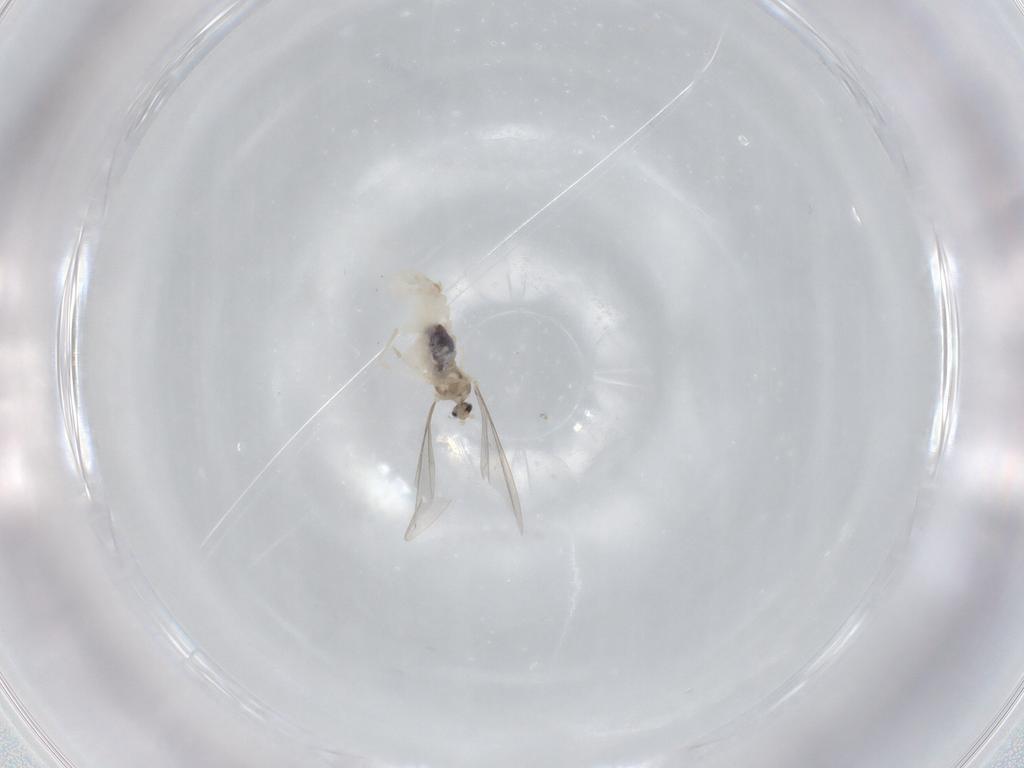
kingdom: Animalia
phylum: Arthropoda
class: Insecta
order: Diptera
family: Cecidomyiidae
